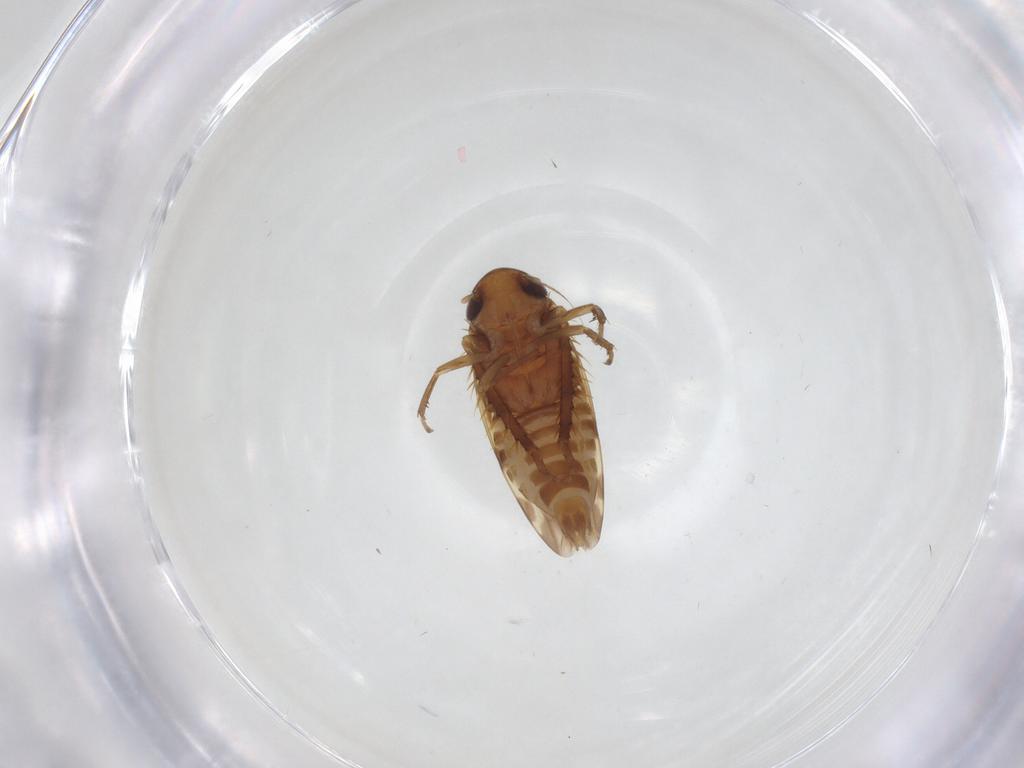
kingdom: Animalia
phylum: Arthropoda
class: Insecta
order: Hemiptera
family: Cicadellidae
